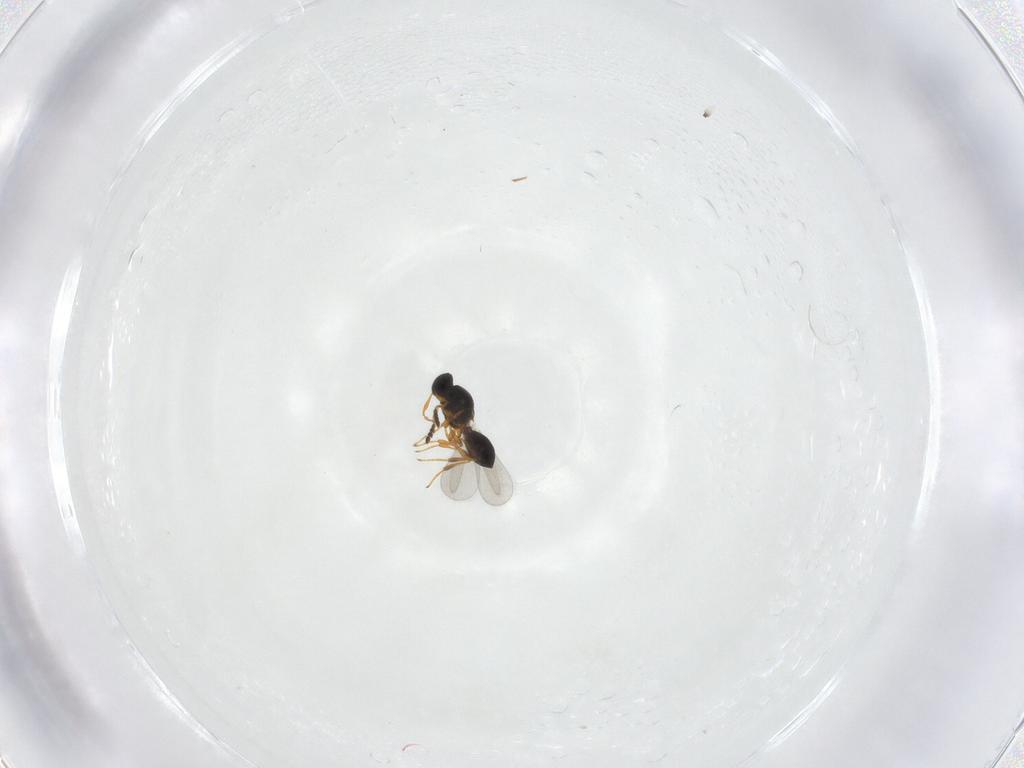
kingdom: Animalia
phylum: Arthropoda
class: Insecta
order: Hymenoptera
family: Platygastridae
